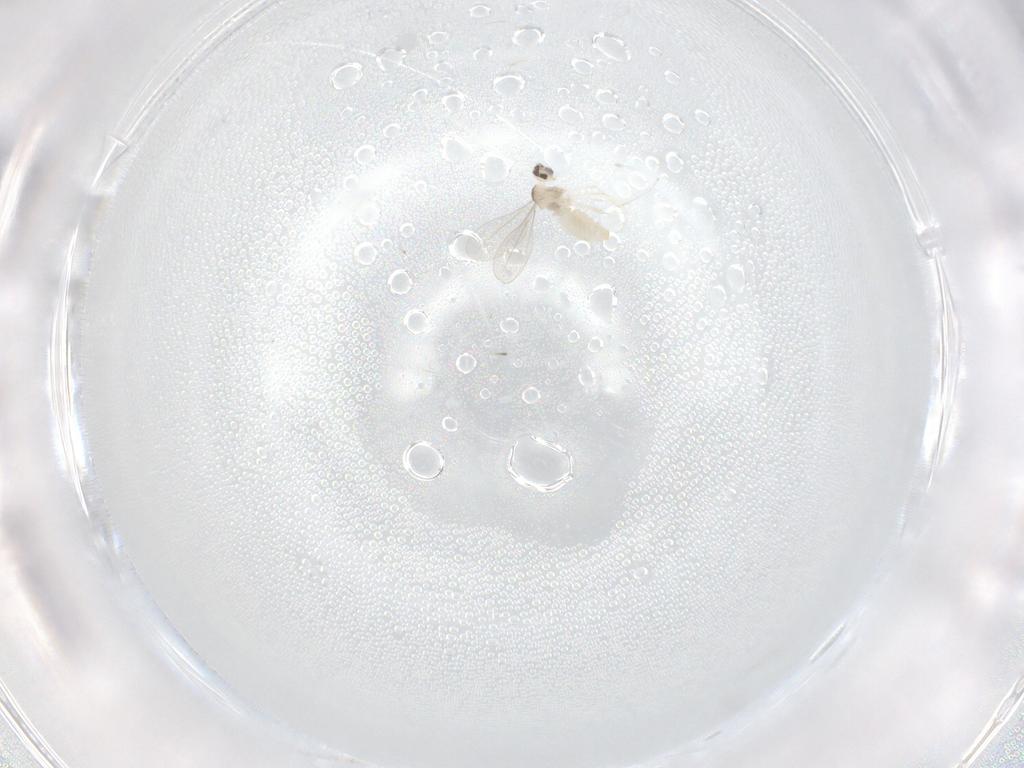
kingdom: Animalia
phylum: Arthropoda
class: Insecta
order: Diptera
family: Cecidomyiidae
